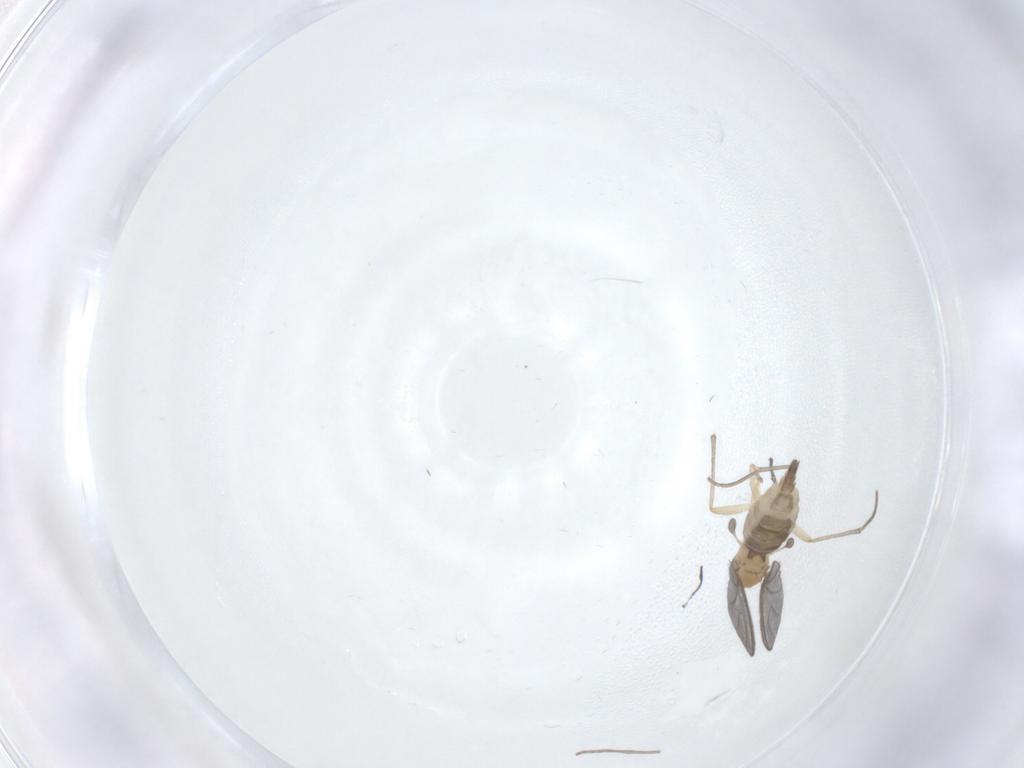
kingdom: Animalia
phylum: Arthropoda
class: Insecta
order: Diptera
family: Sciaridae
